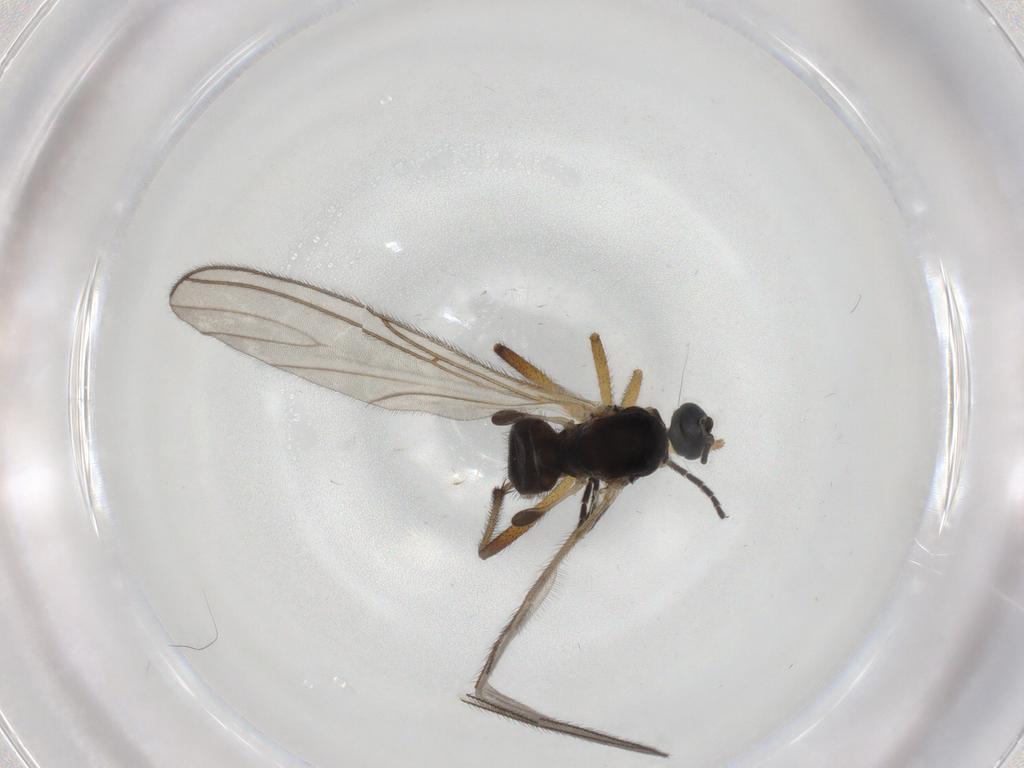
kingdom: Animalia
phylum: Arthropoda
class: Insecta
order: Diptera
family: Sciaridae
